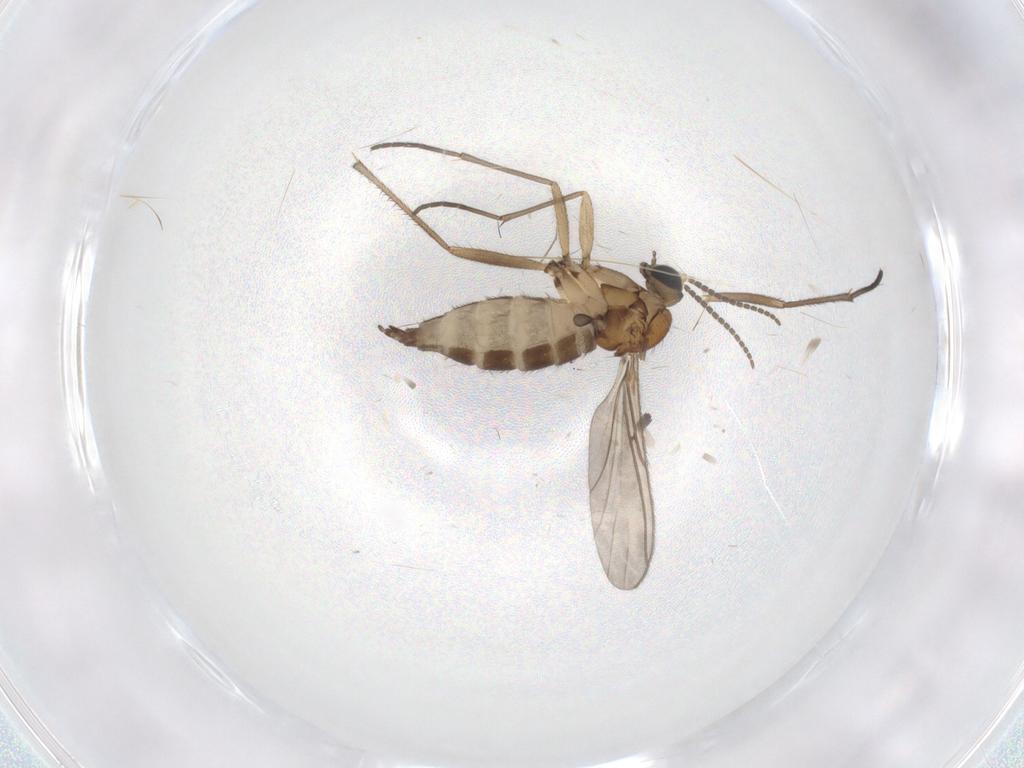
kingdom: Animalia
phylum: Arthropoda
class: Insecta
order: Diptera
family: Sciaridae
